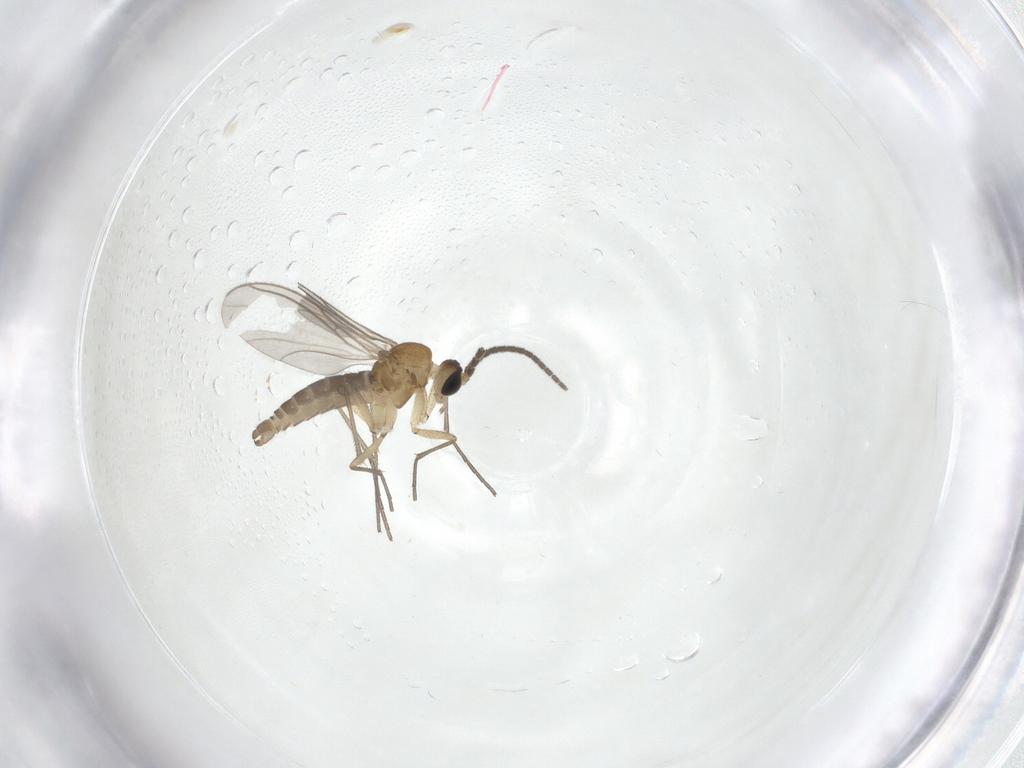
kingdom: Animalia
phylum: Arthropoda
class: Insecta
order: Diptera
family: Sciaridae
